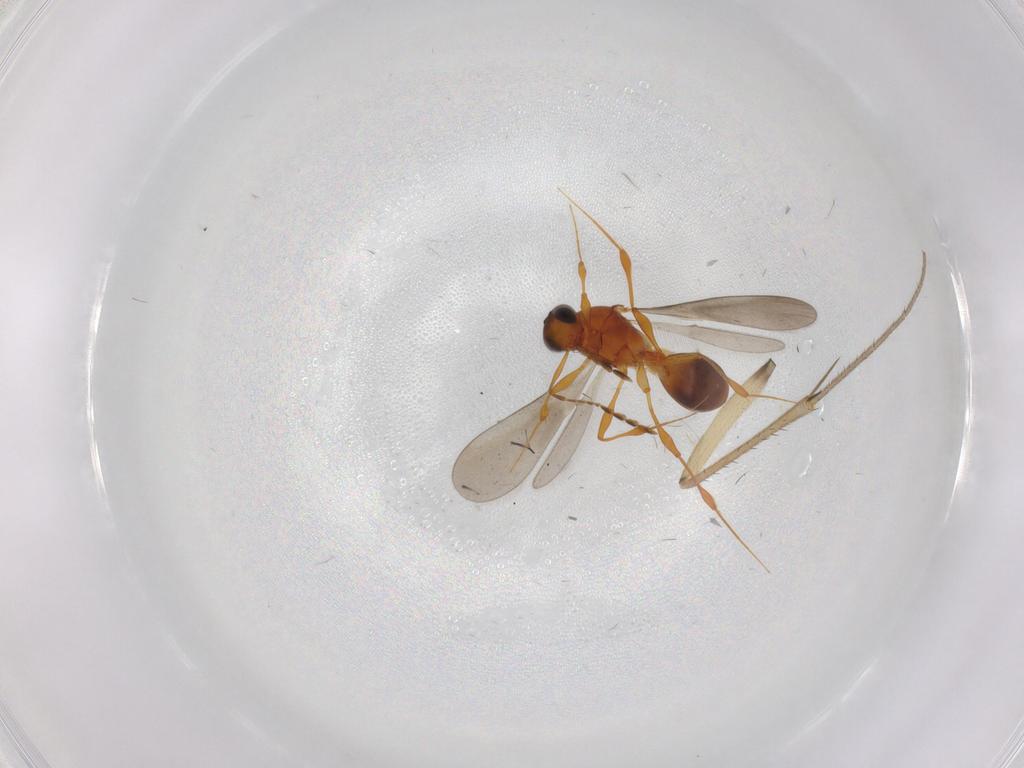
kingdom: Animalia
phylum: Arthropoda
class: Insecta
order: Hymenoptera
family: Platygastridae
